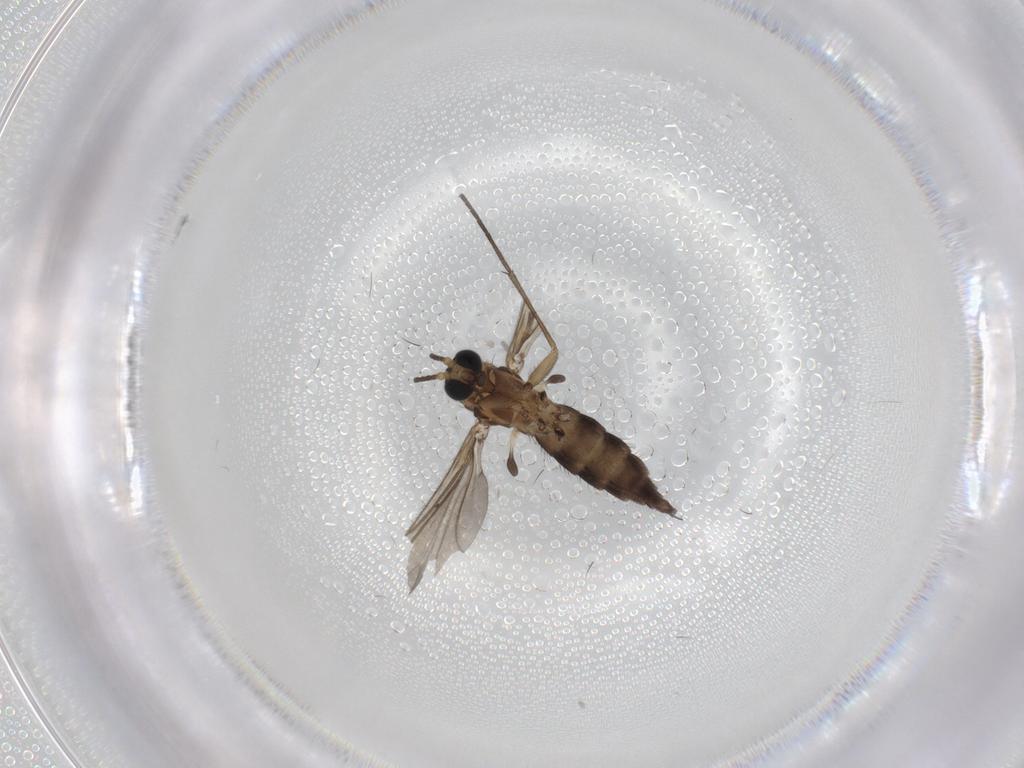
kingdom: Animalia
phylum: Arthropoda
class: Insecta
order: Diptera
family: Sciaridae
